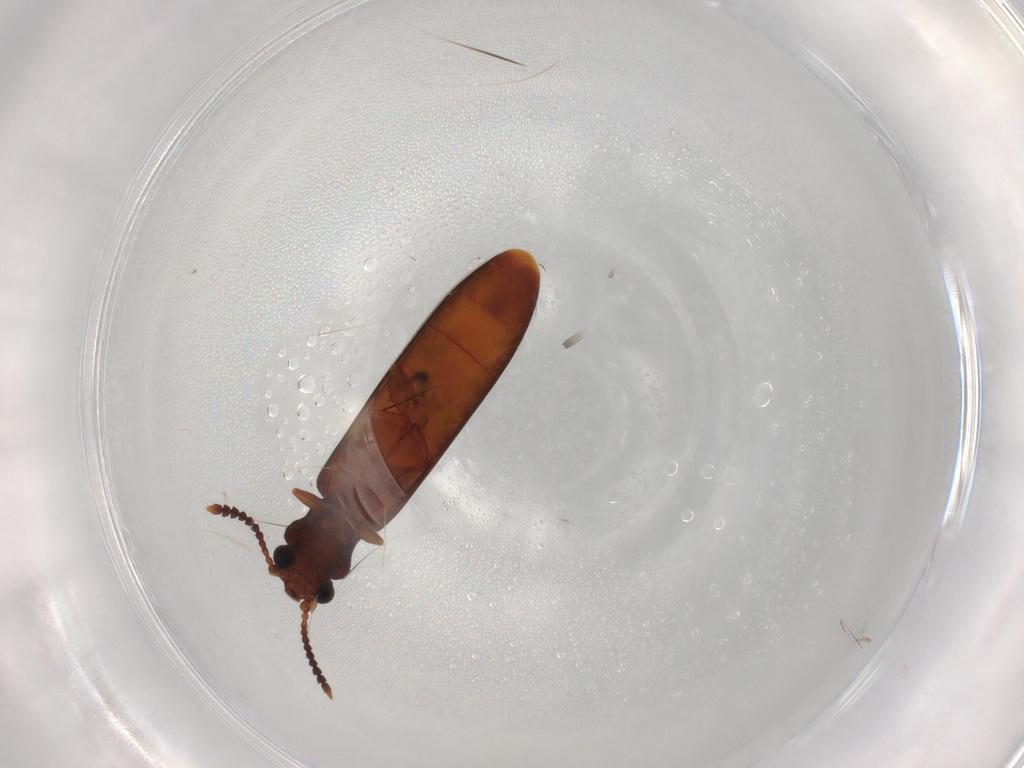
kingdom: Animalia
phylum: Arthropoda
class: Insecta
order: Coleoptera
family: Mycteridae
